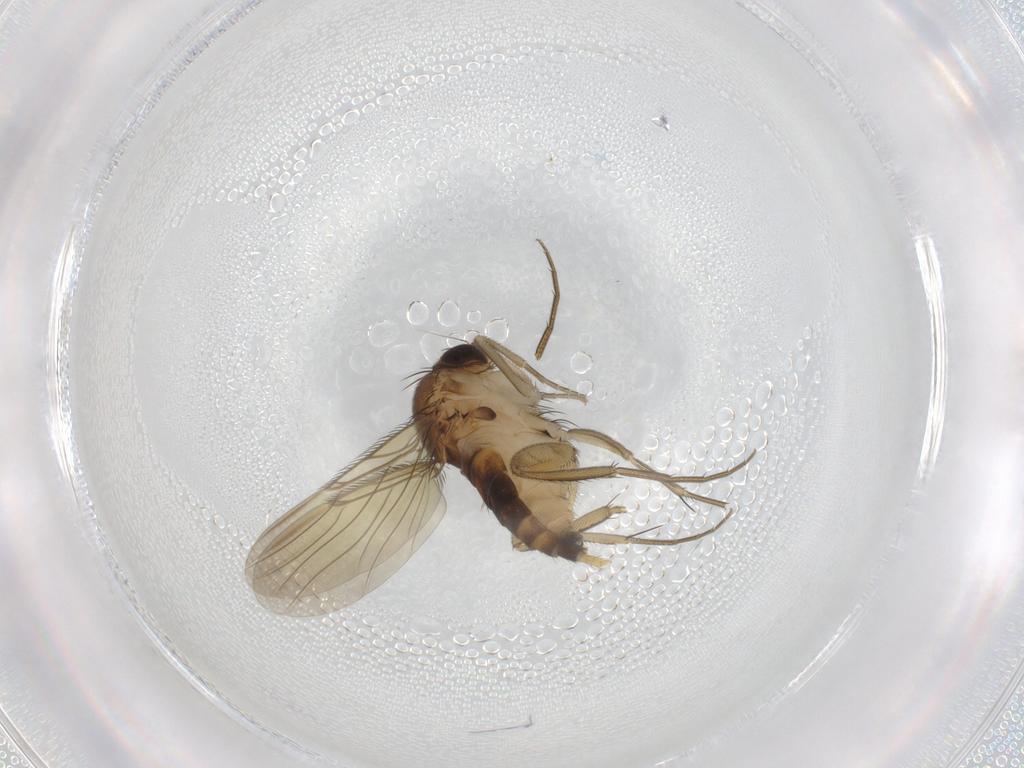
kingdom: Animalia
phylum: Arthropoda
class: Insecta
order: Diptera
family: Phoridae
